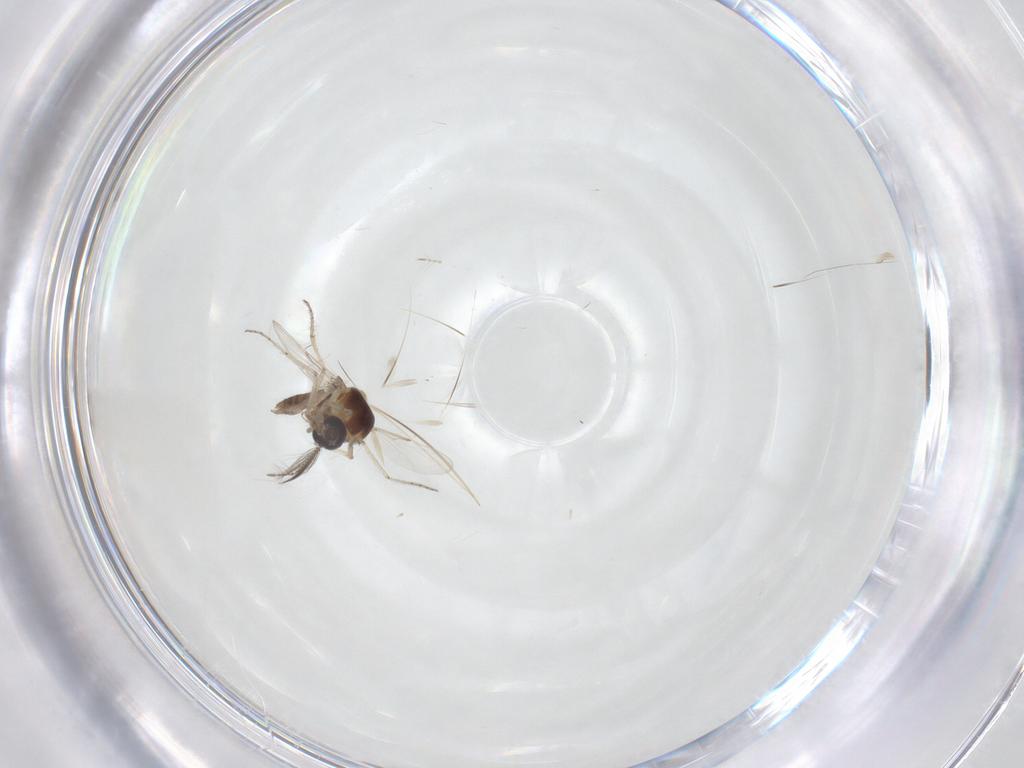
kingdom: Animalia
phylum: Arthropoda
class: Insecta
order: Diptera
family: Ceratopogonidae
